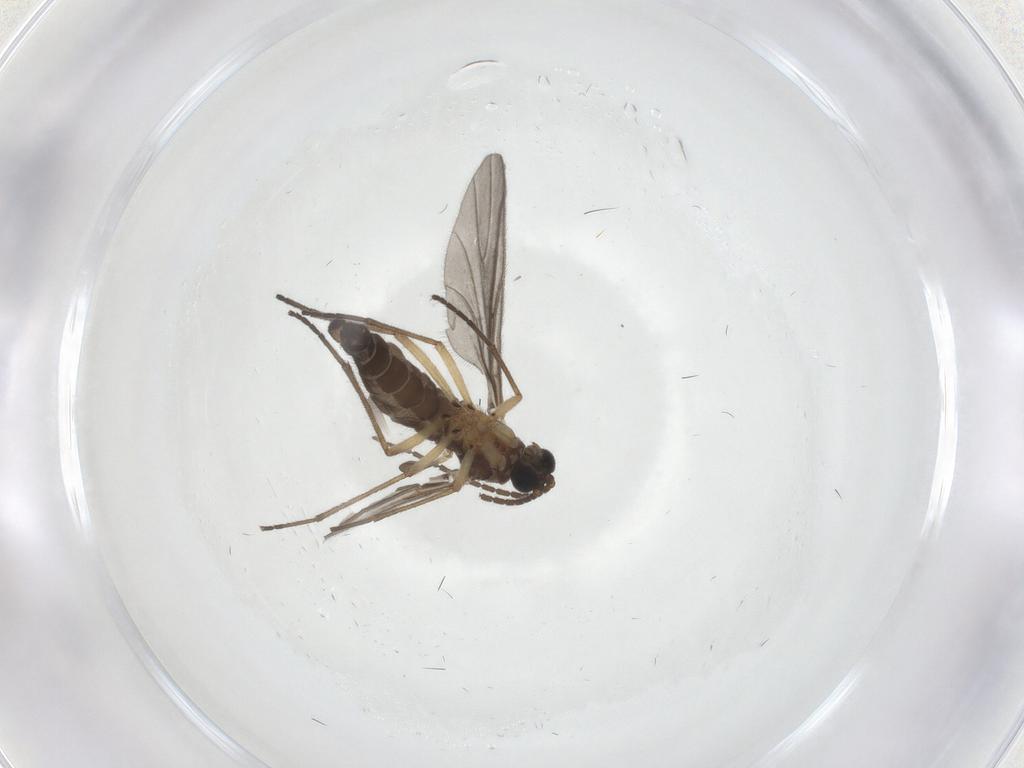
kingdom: Animalia
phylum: Arthropoda
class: Insecta
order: Diptera
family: Sciaridae
